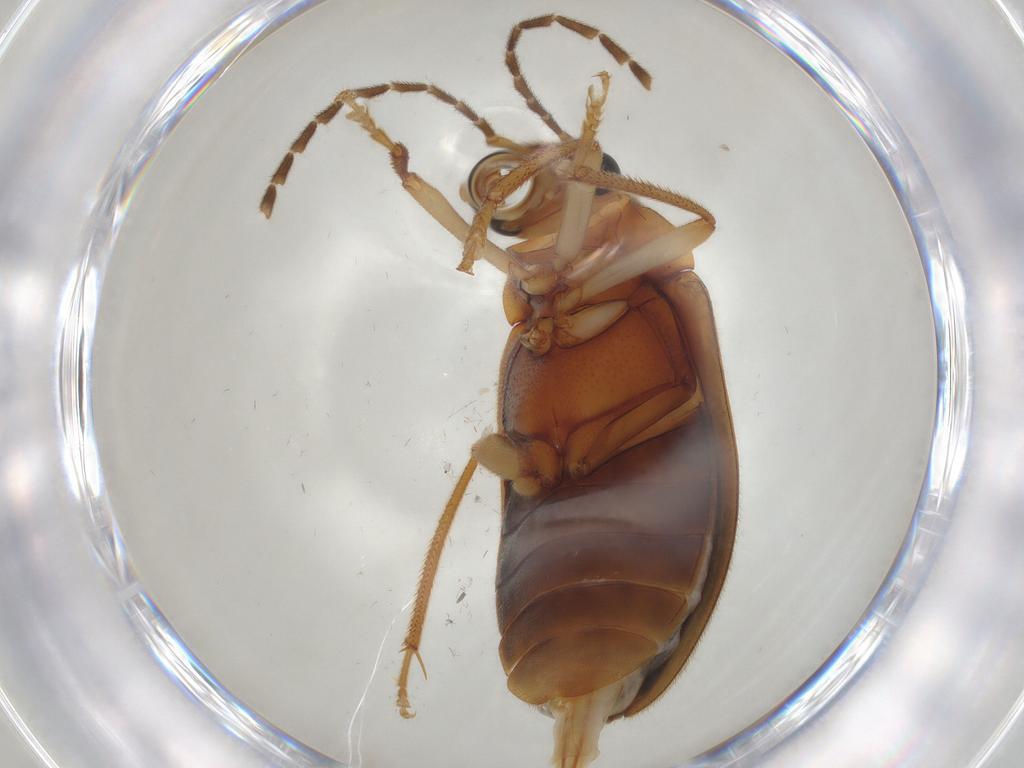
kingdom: Animalia
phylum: Arthropoda
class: Insecta
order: Coleoptera
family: Ptilodactylidae
